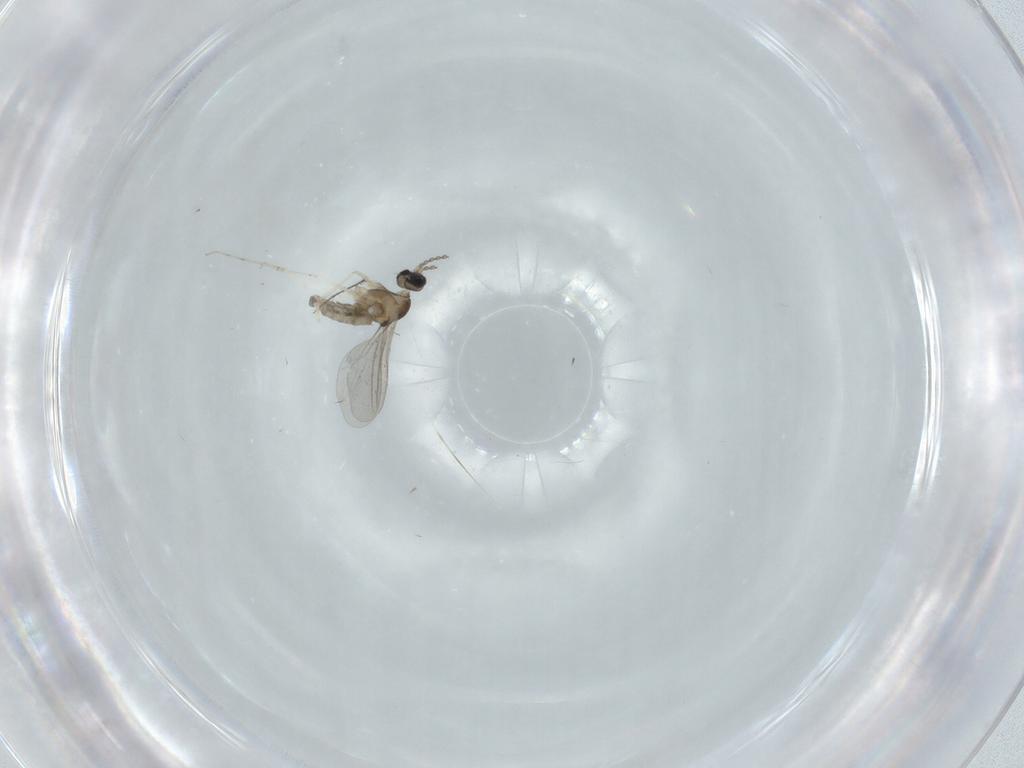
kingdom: Animalia
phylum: Arthropoda
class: Insecta
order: Diptera
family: Cecidomyiidae
